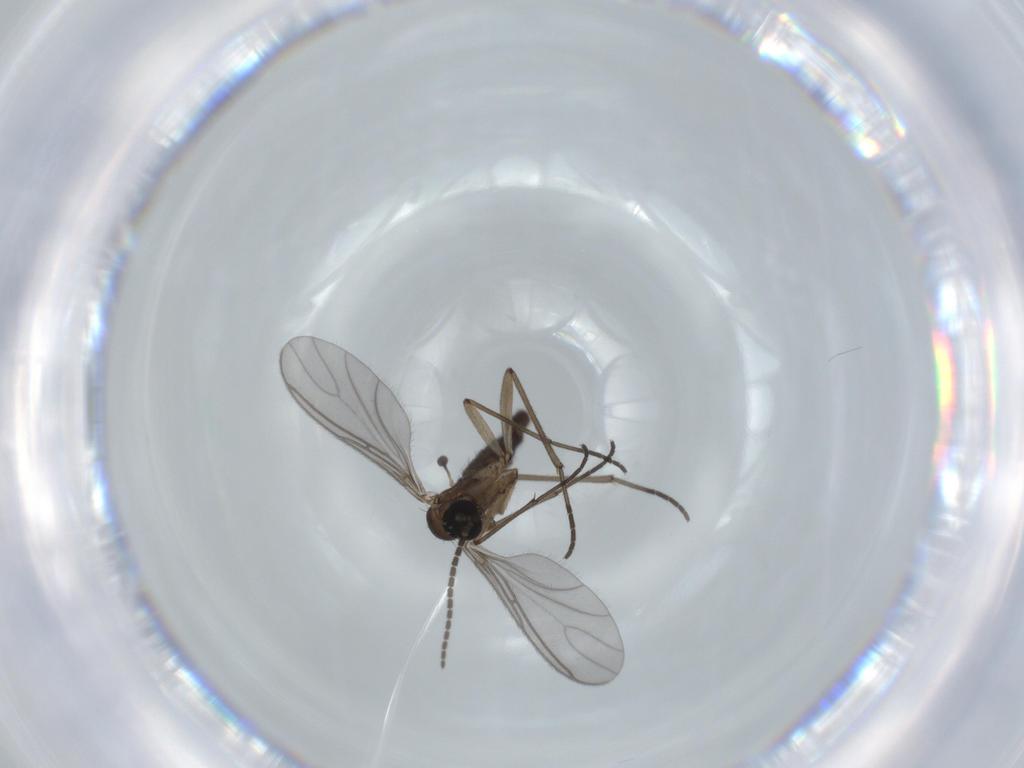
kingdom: Animalia
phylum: Arthropoda
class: Insecta
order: Diptera
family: Sciaridae
